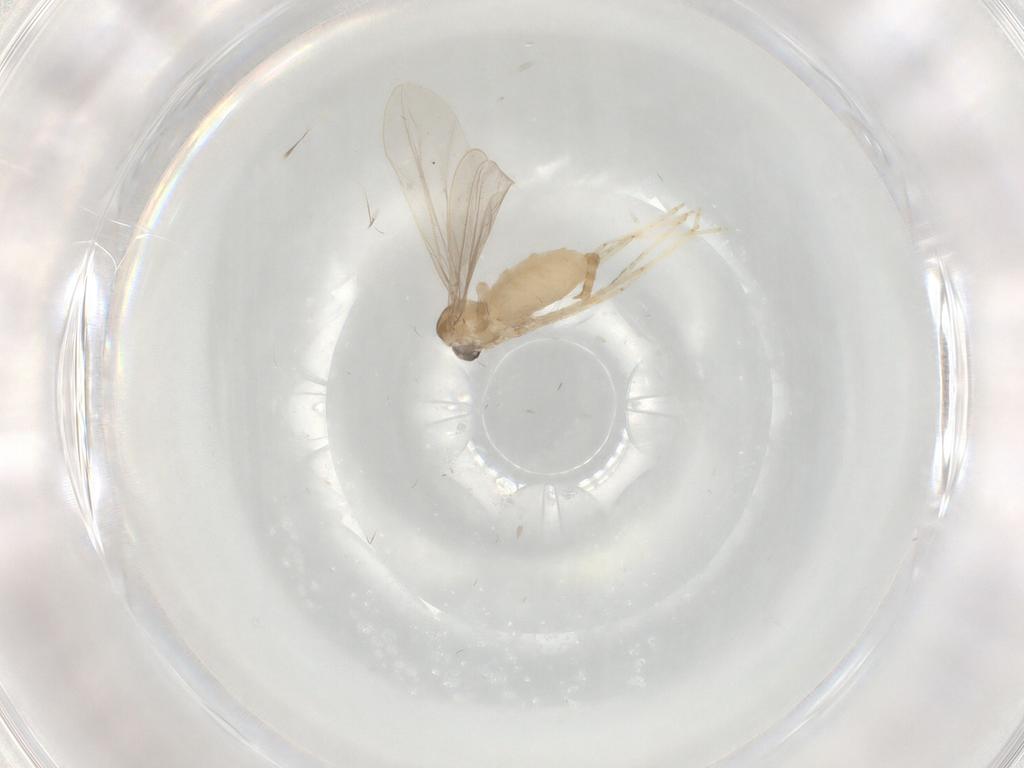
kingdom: Animalia
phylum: Arthropoda
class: Insecta
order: Diptera
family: Cecidomyiidae
